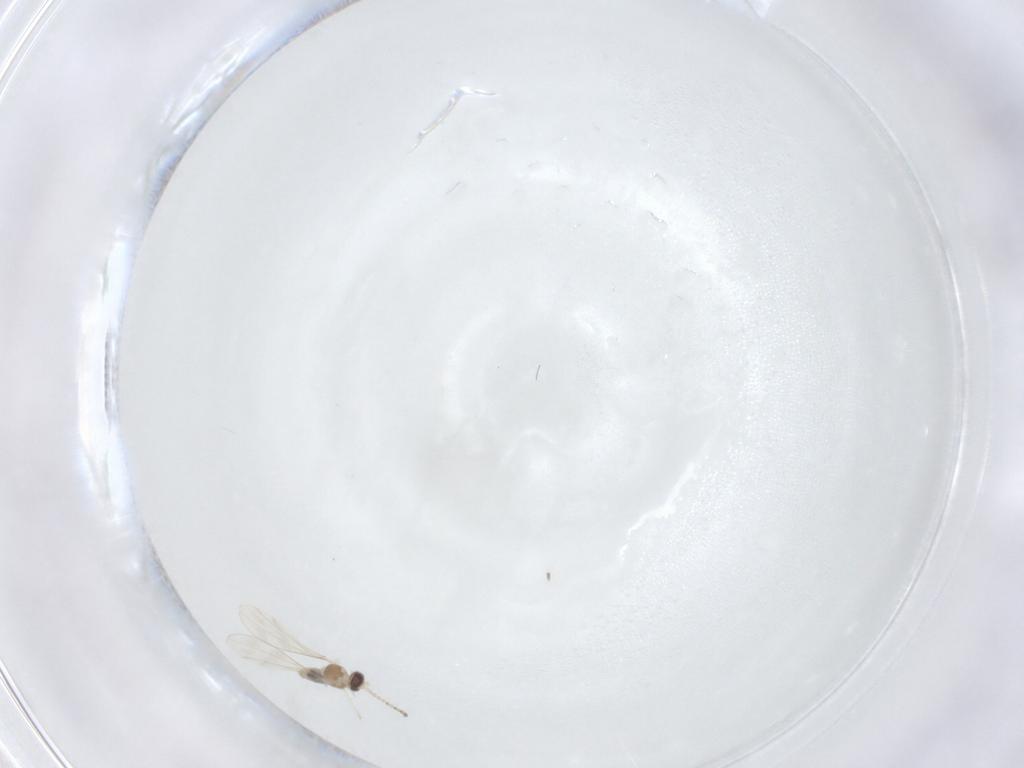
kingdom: Animalia
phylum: Arthropoda
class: Insecta
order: Diptera
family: Cecidomyiidae
